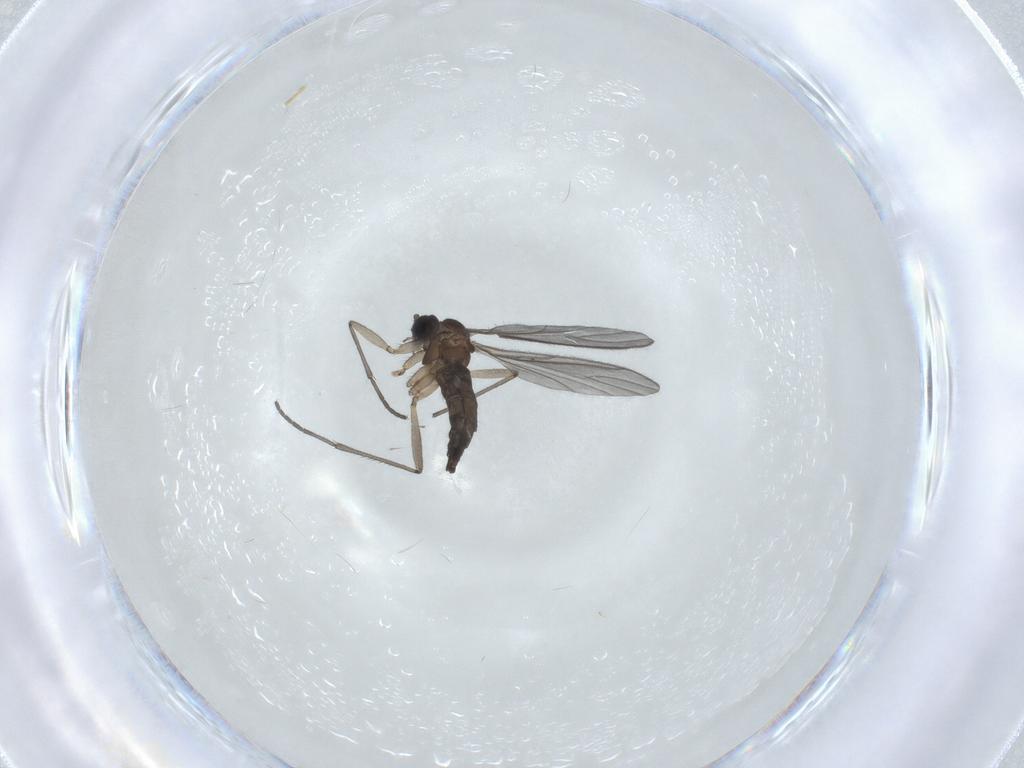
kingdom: Animalia
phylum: Arthropoda
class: Insecta
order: Diptera
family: Sciaridae
